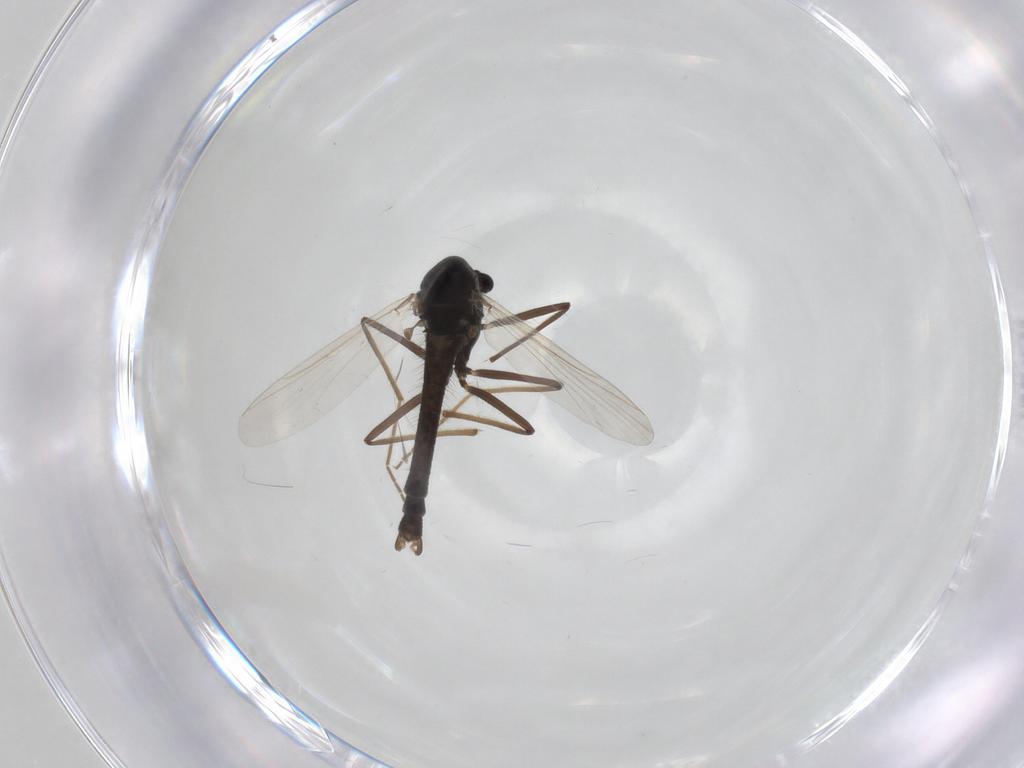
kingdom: Animalia
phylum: Arthropoda
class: Insecta
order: Diptera
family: Chironomidae
